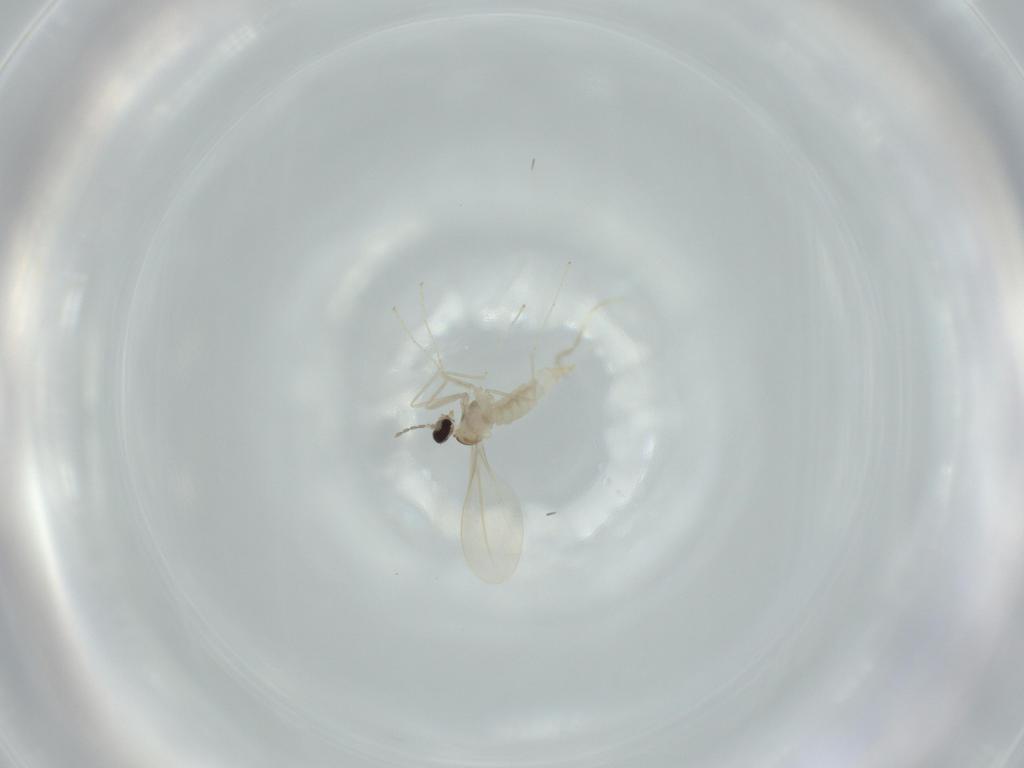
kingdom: Animalia
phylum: Arthropoda
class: Insecta
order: Diptera
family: Cecidomyiidae
